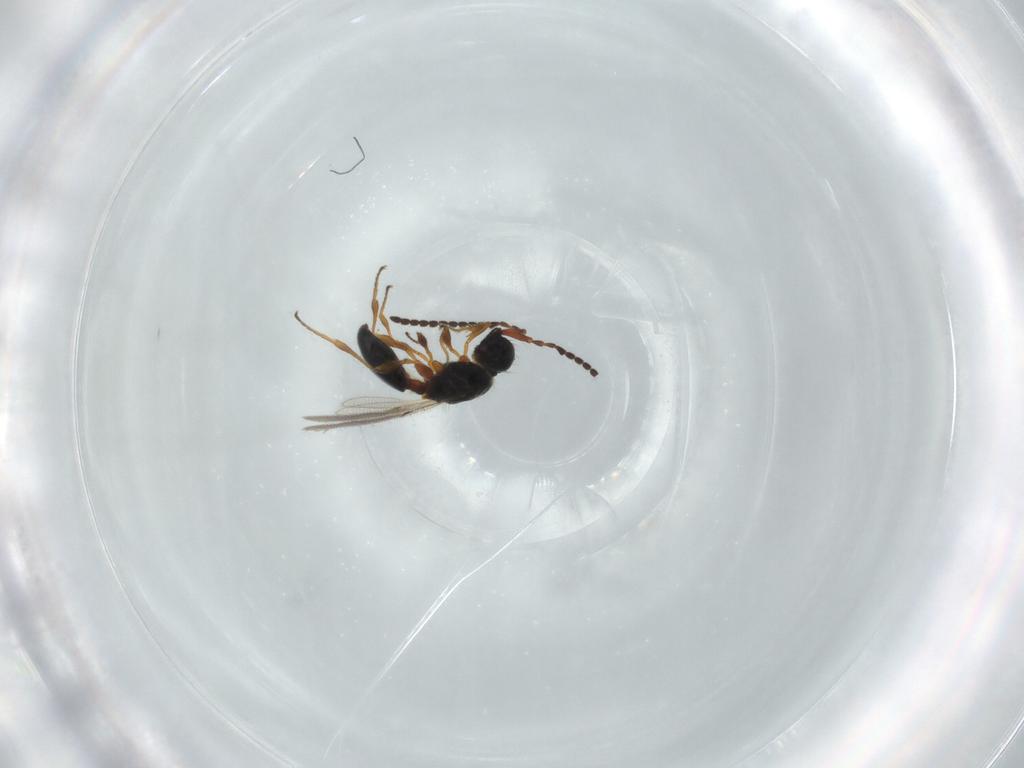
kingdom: Animalia
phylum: Arthropoda
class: Insecta
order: Hymenoptera
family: Diapriidae
